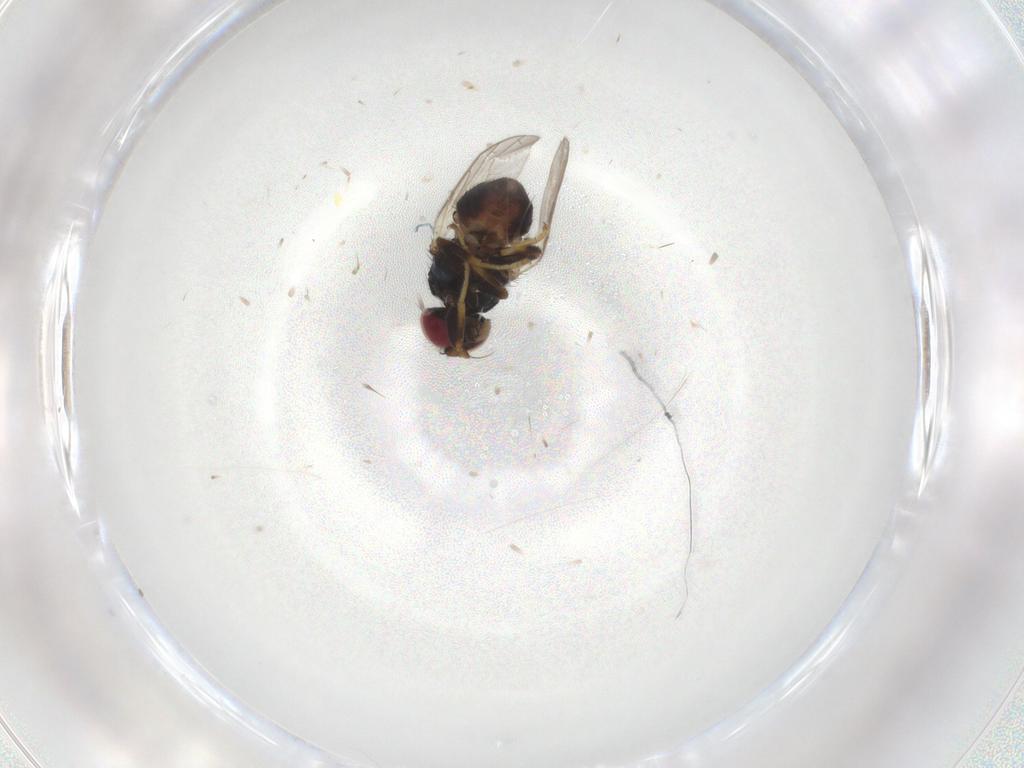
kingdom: Animalia
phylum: Arthropoda
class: Insecta
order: Diptera
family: Chloropidae
